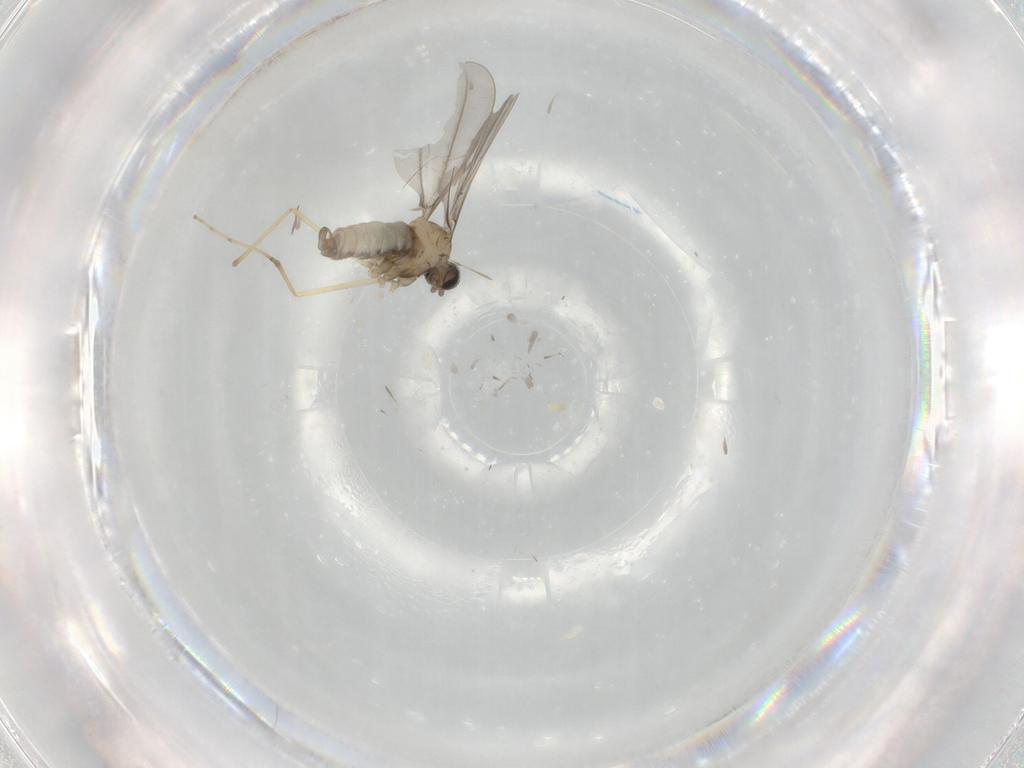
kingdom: Animalia
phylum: Arthropoda
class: Insecta
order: Diptera
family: Cecidomyiidae
